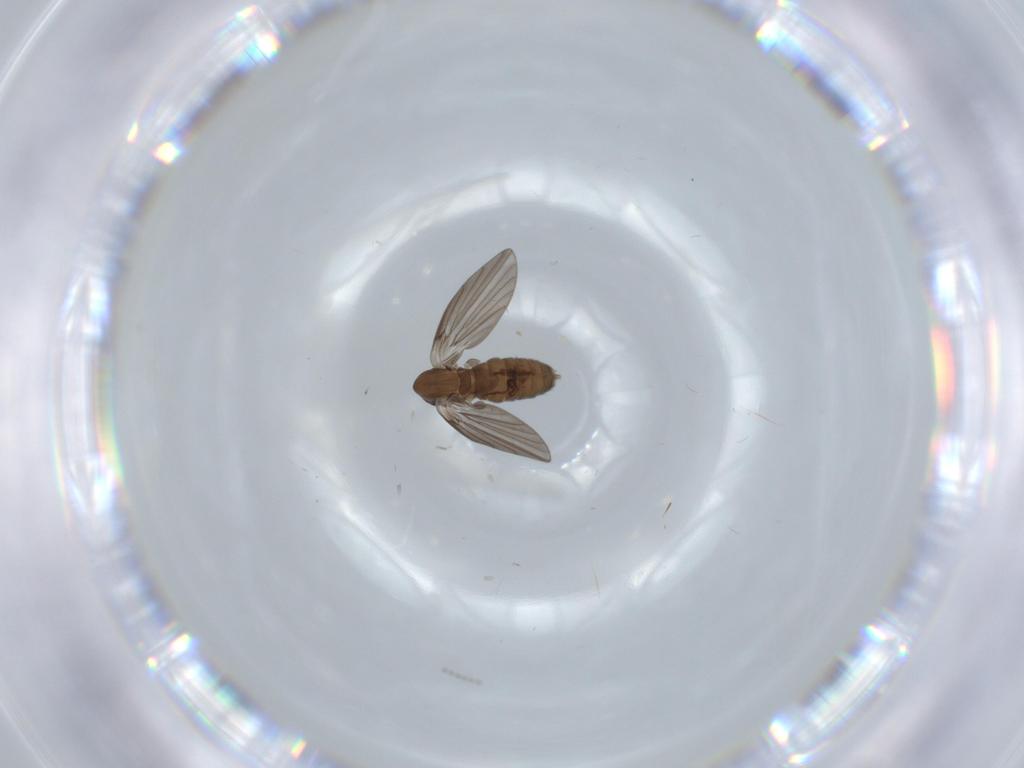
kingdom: Animalia
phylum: Arthropoda
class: Insecta
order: Diptera
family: Psychodidae
